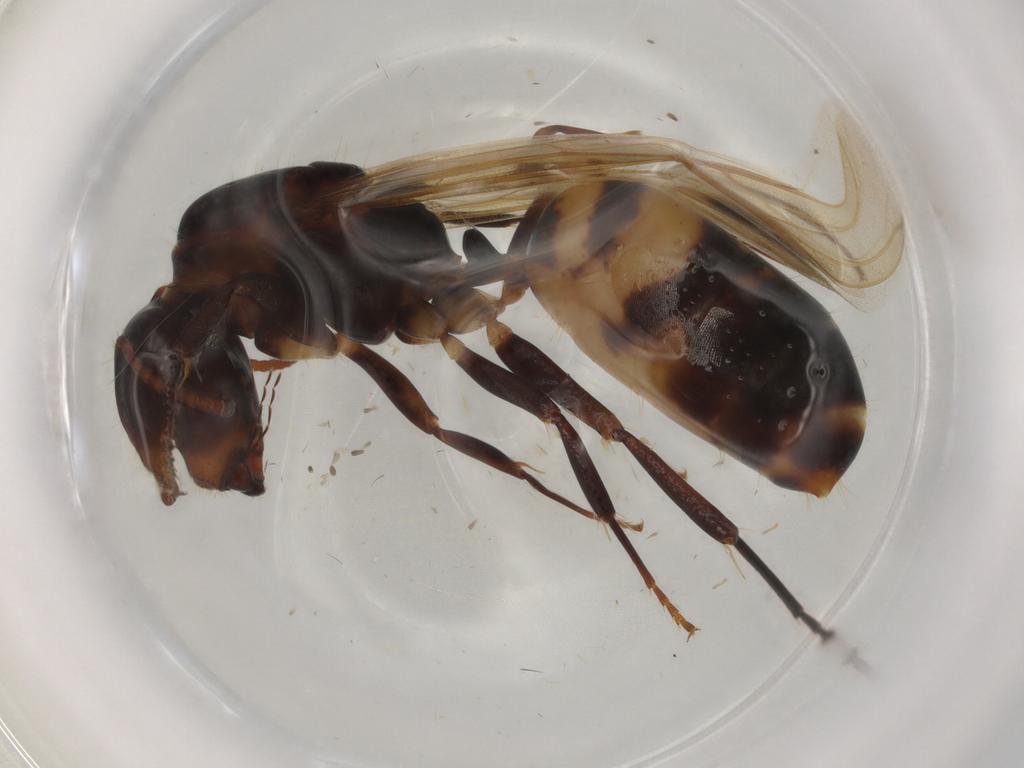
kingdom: Animalia
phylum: Arthropoda
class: Insecta
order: Hymenoptera
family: Formicidae
